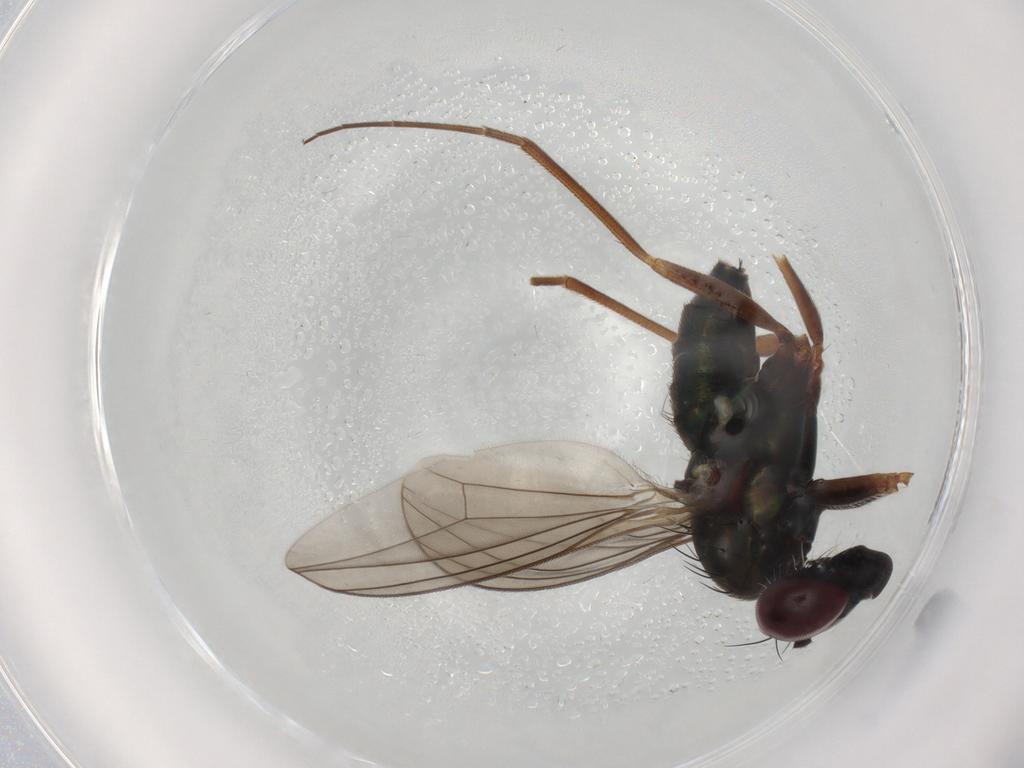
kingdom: Animalia
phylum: Arthropoda
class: Insecta
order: Diptera
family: Dolichopodidae
